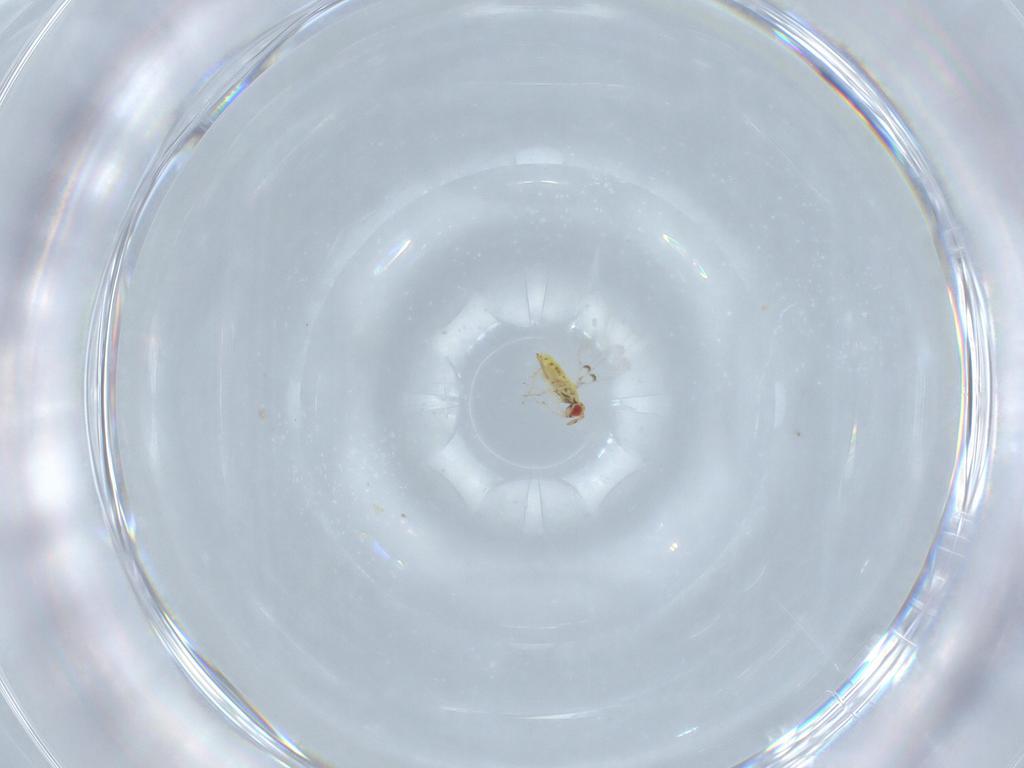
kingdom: Animalia
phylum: Arthropoda
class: Insecta
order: Hymenoptera
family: Trichogrammatidae
